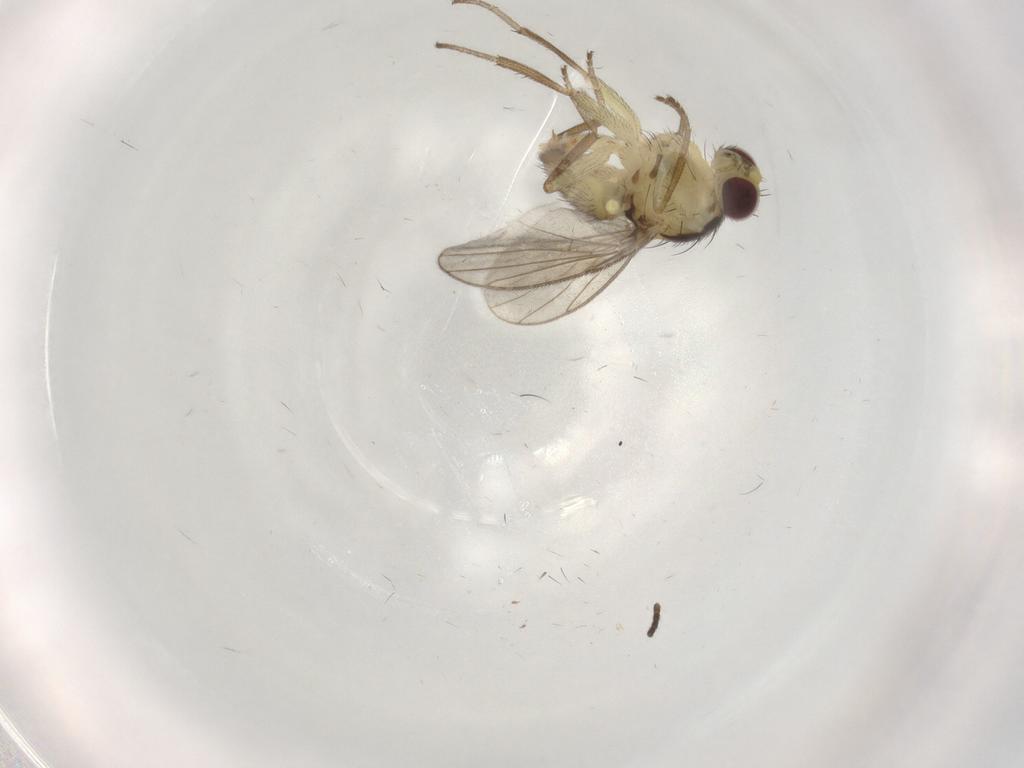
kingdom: Animalia
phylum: Arthropoda
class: Insecta
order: Diptera
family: Agromyzidae
